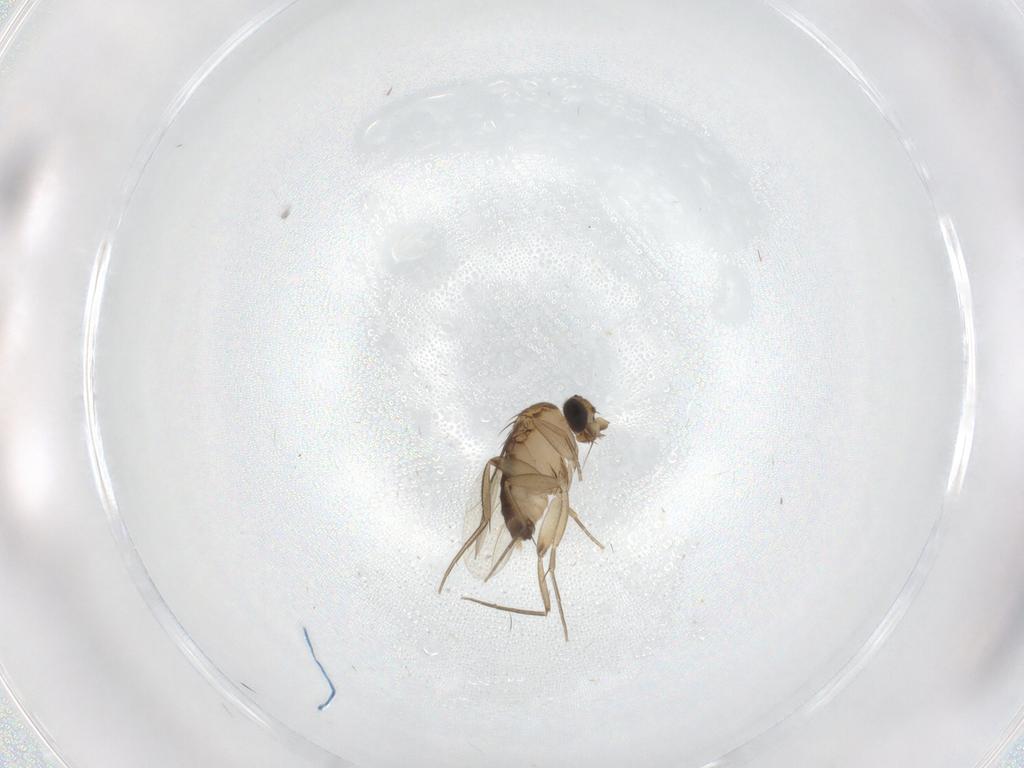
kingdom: Animalia
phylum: Arthropoda
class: Insecta
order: Diptera
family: Phoridae
